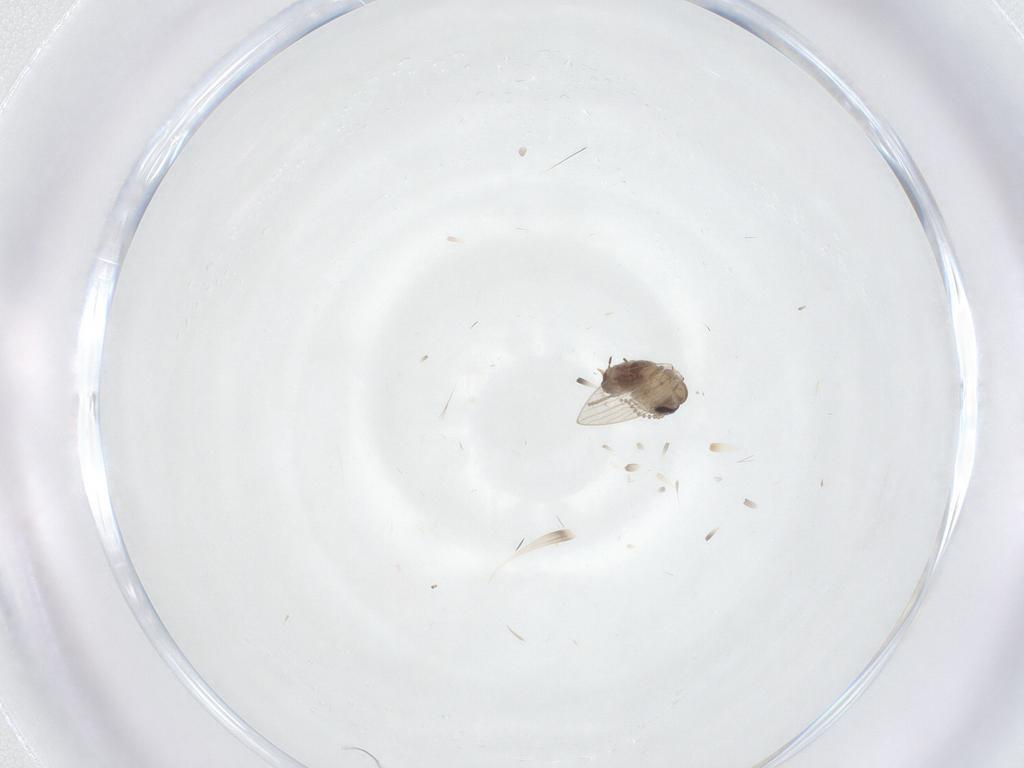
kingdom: Animalia
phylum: Arthropoda
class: Insecta
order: Diptera
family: Psychodidae
